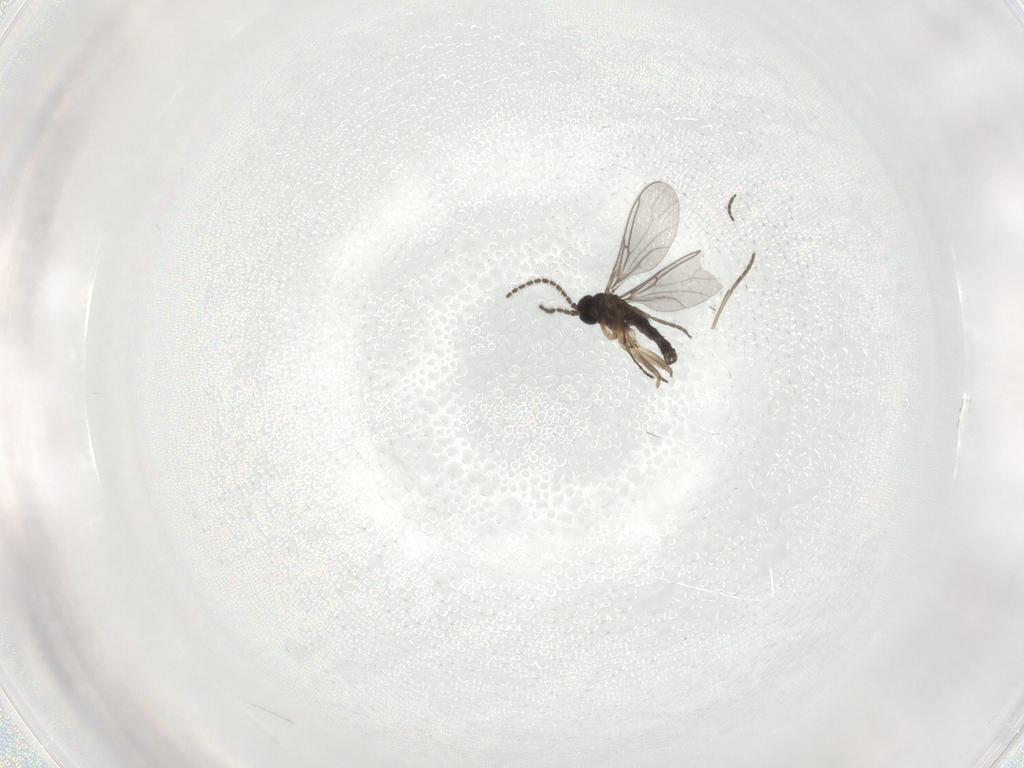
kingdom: Animalia
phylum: Arthropoda
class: Insecta
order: Diptera
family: Sciaridae
